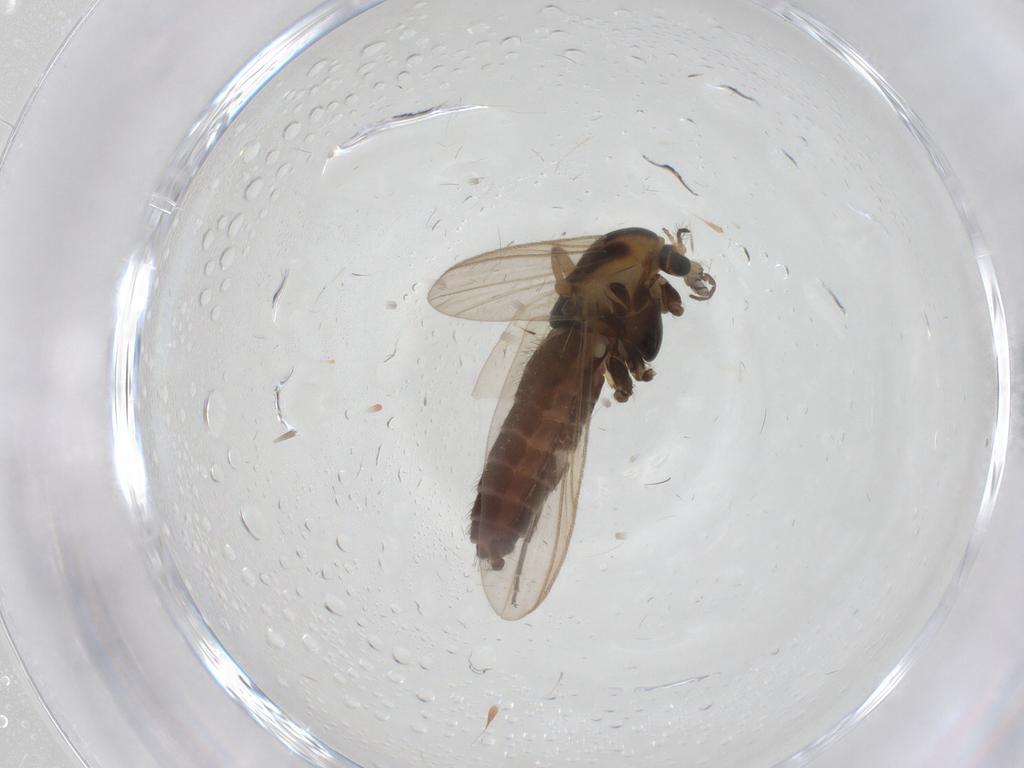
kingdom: Animalia
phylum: Arthropoda
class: Insecta
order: Diptera
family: Chironomidae
